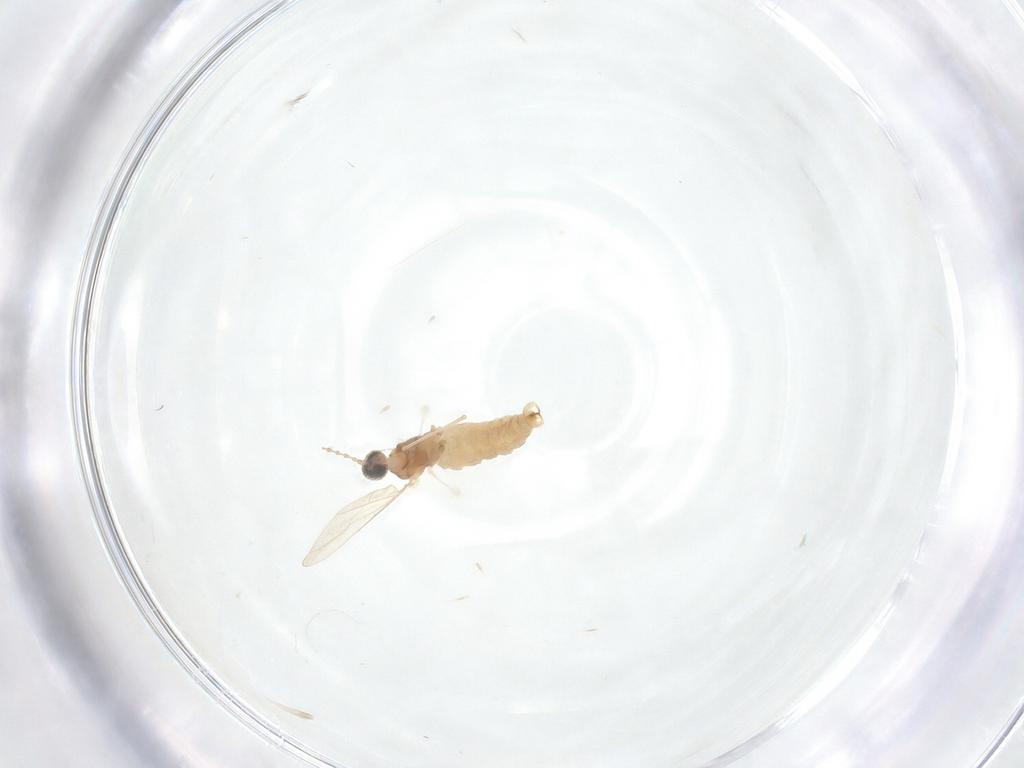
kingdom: Animalia
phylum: Arthropoda
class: Insecta
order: Diptera
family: Cecidomyiidae
